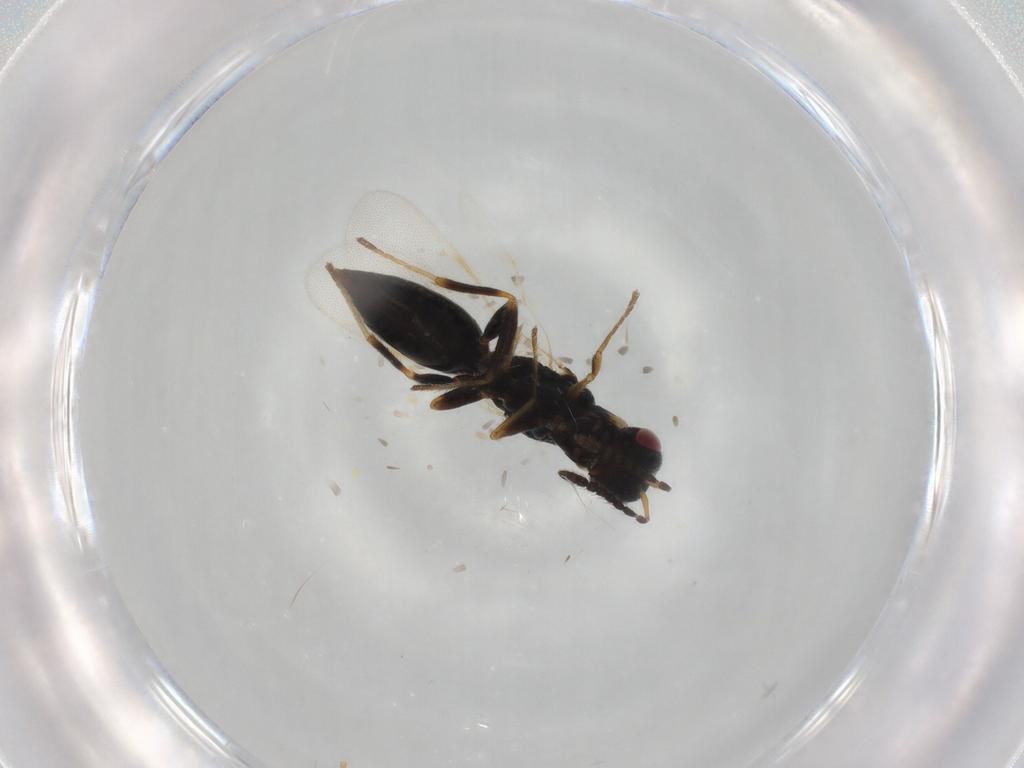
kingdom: Animalia
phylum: Arthropoda
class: Insecta
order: Hymenoptera
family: Eurytomidae
